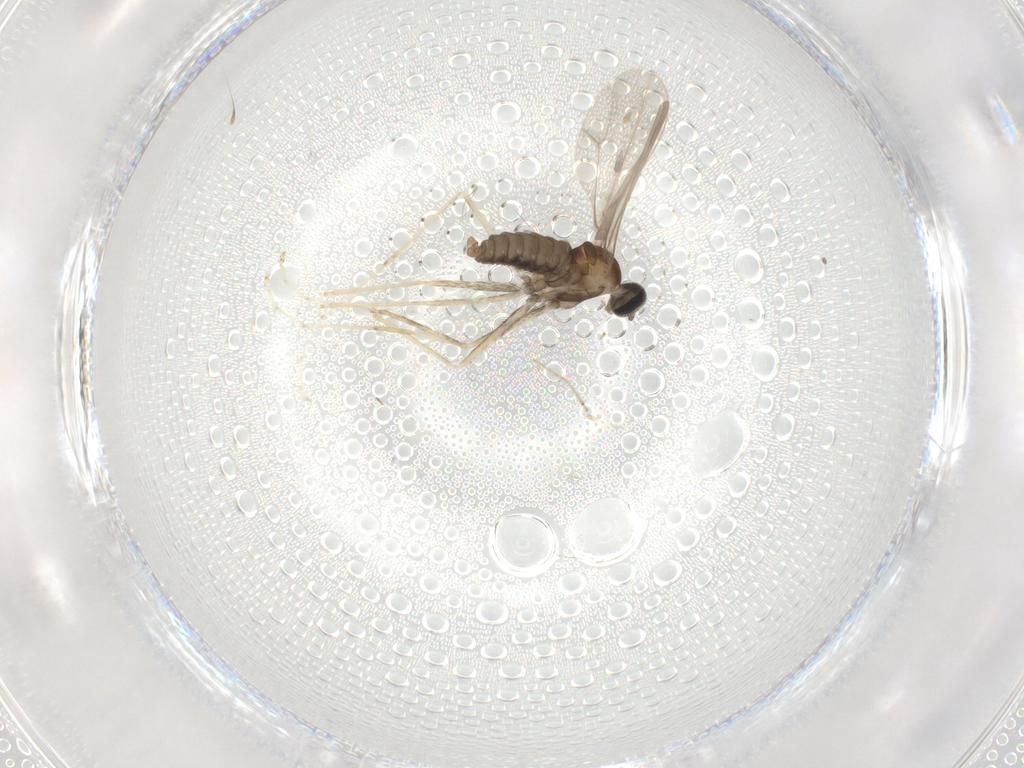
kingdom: Animalia
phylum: Arthropoda
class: Insecta
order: Diptera
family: Cecidomyiidae
